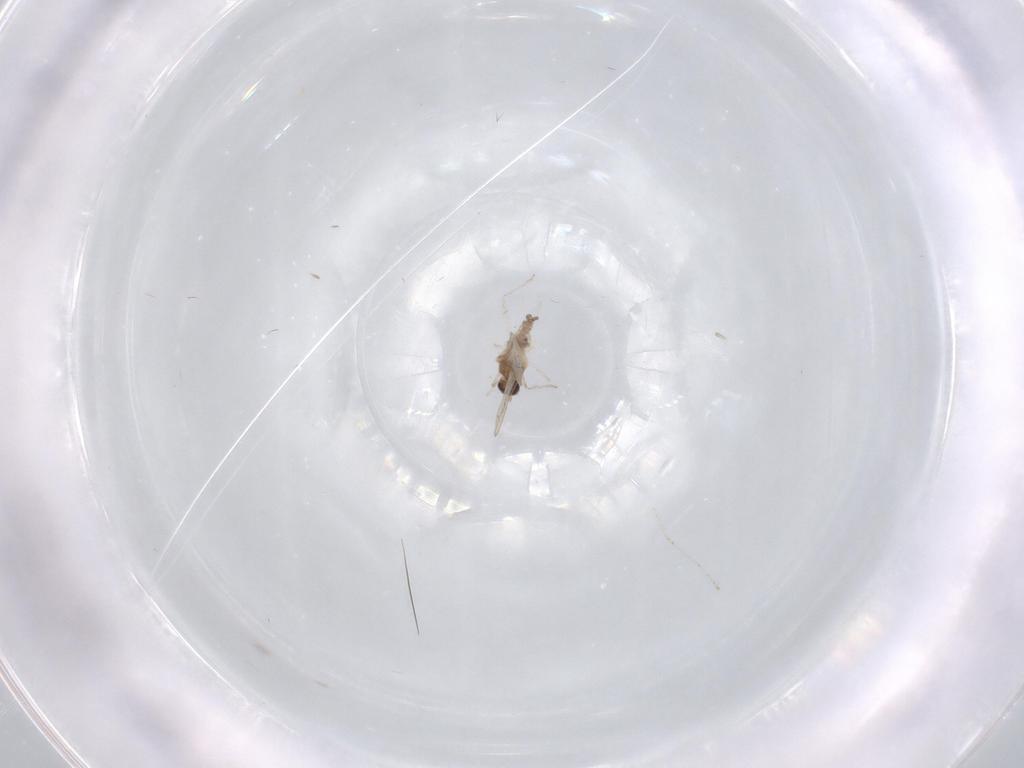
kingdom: Animalia
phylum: Arthropoda
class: Insecta
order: Diptera
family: Cecidomyiidae
